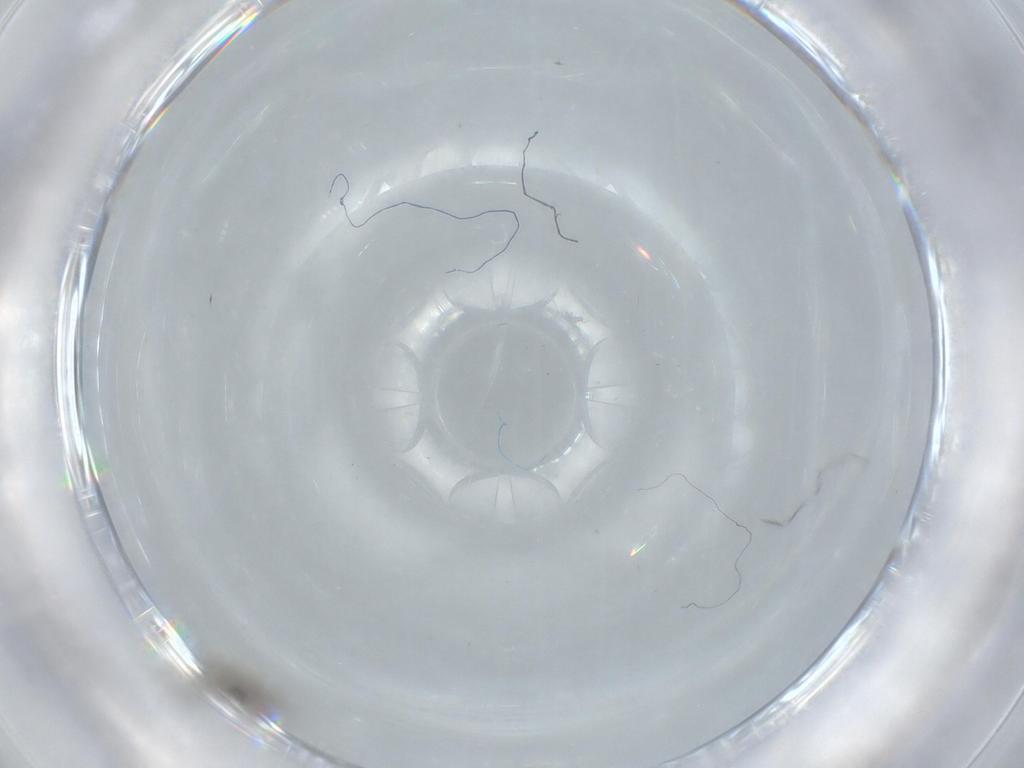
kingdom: Animalia
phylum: Arthropoda
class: Insecta
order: Diptera
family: Cecidomyiidae
